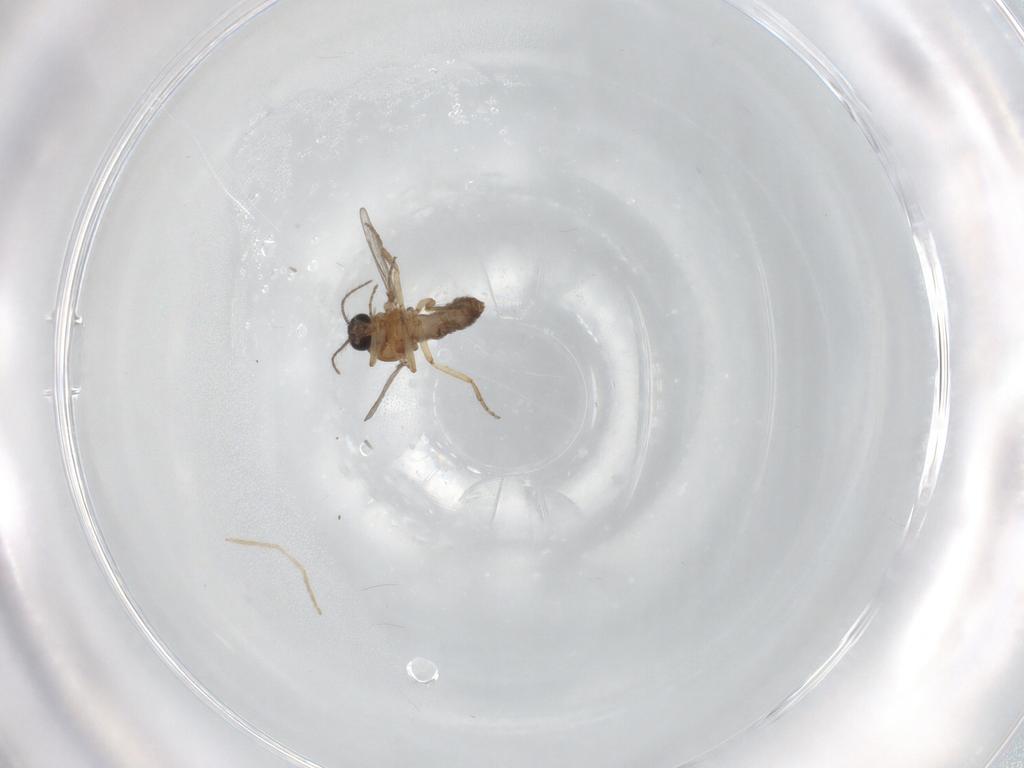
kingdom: Animalia
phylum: Arthropoda
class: Insecta
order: Diptera
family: Chironomidae
